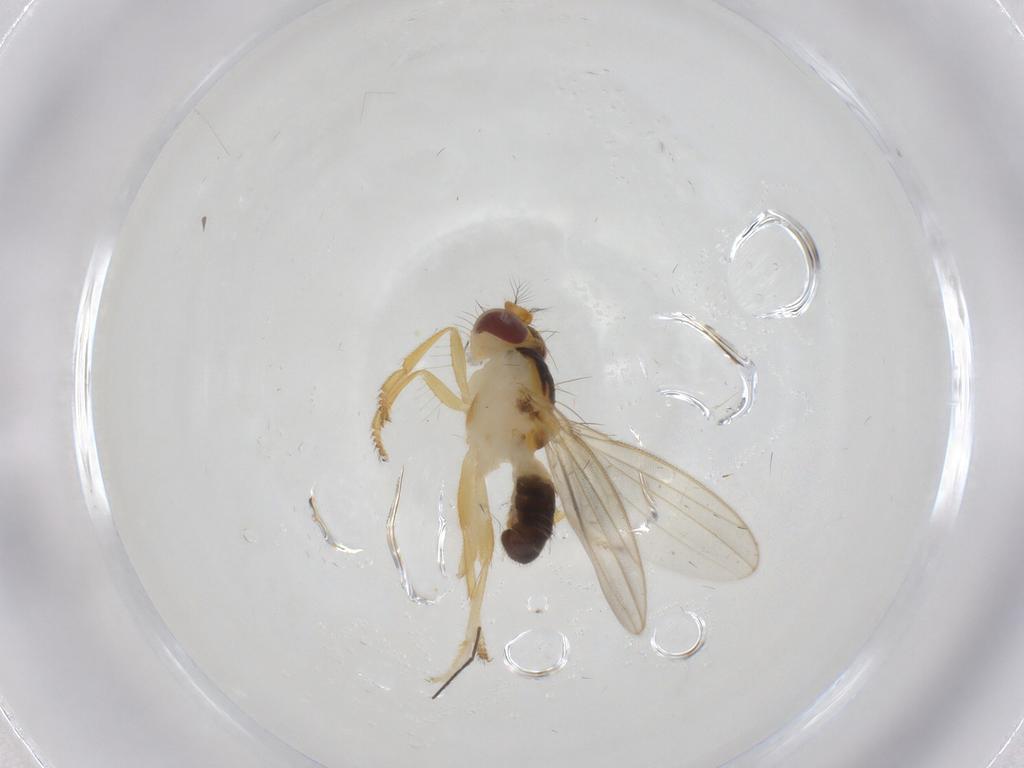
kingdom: Animalia
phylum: Arthropoda
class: Insecta
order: Diptera
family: Periscelididae
